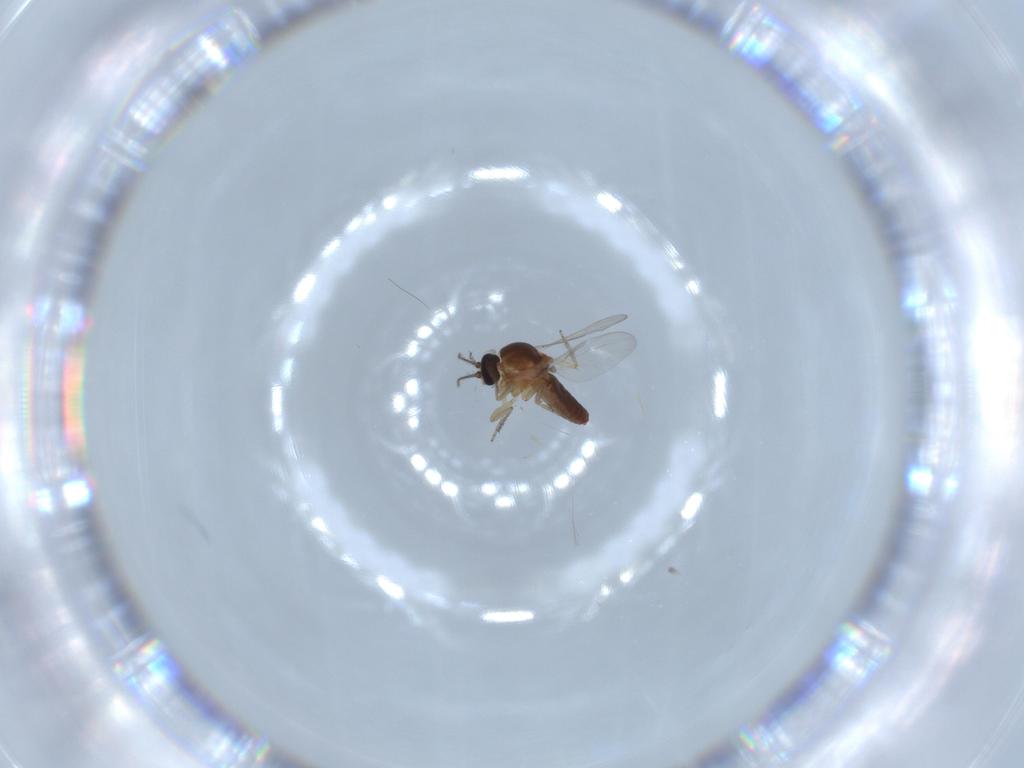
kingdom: Animalia
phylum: Arthropoda
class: Insecta
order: Diptera
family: Ceratopogonidae
